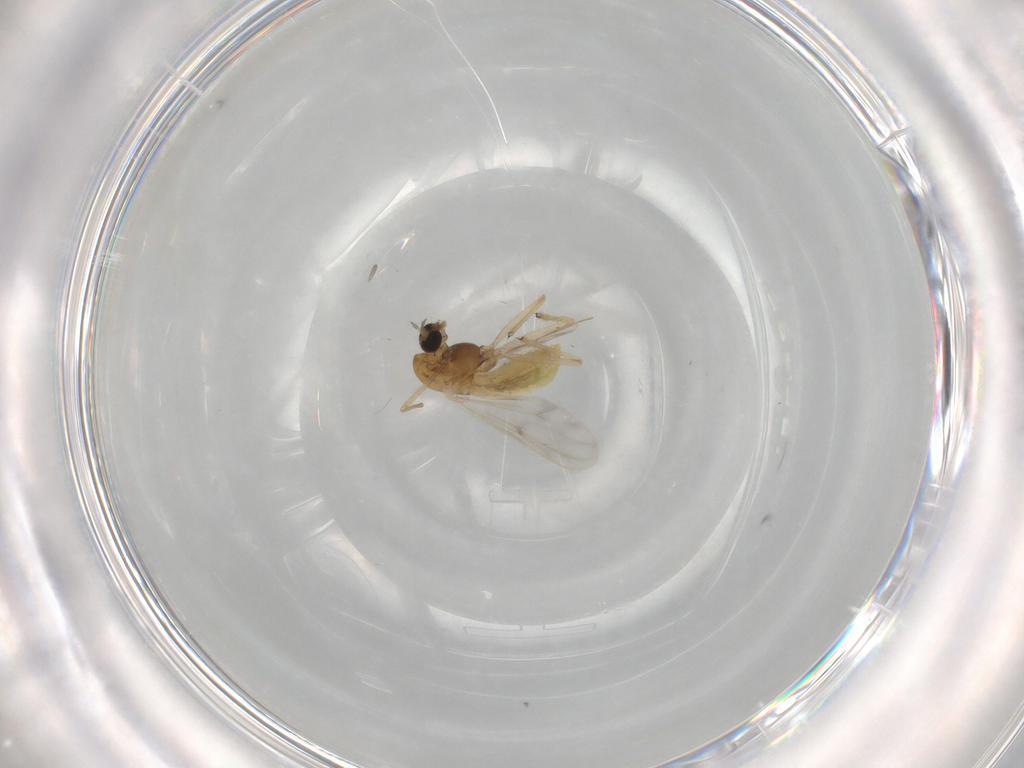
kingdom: Animalia
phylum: Arthropoda
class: Insecta
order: Diptera
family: Chironomidae
